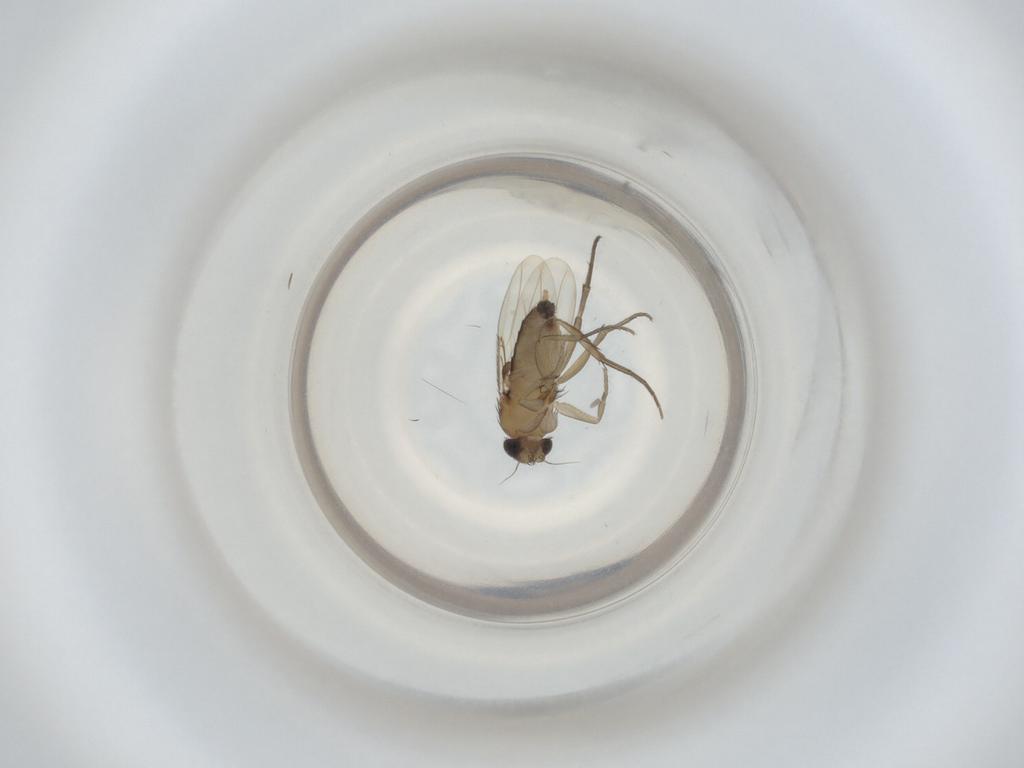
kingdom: Animalia
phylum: Arthropoda
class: Insecta
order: Diptera
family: Phoridae
